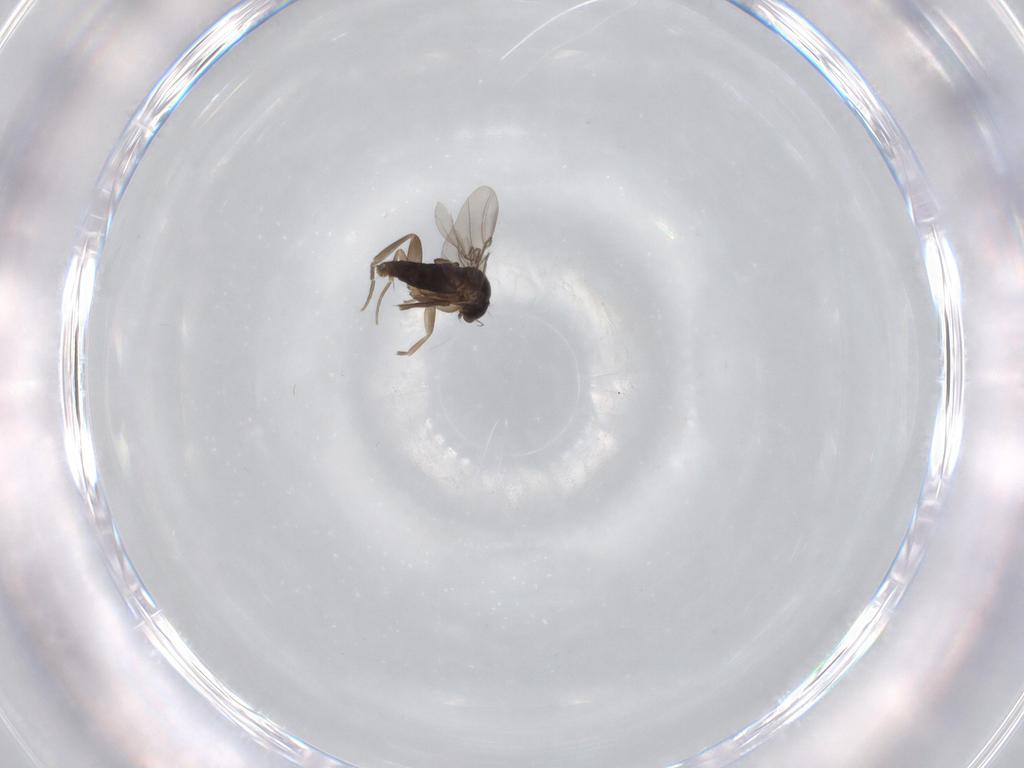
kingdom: Animalia
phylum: Arthropoda
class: Insecta
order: Diptera
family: Phoridae
